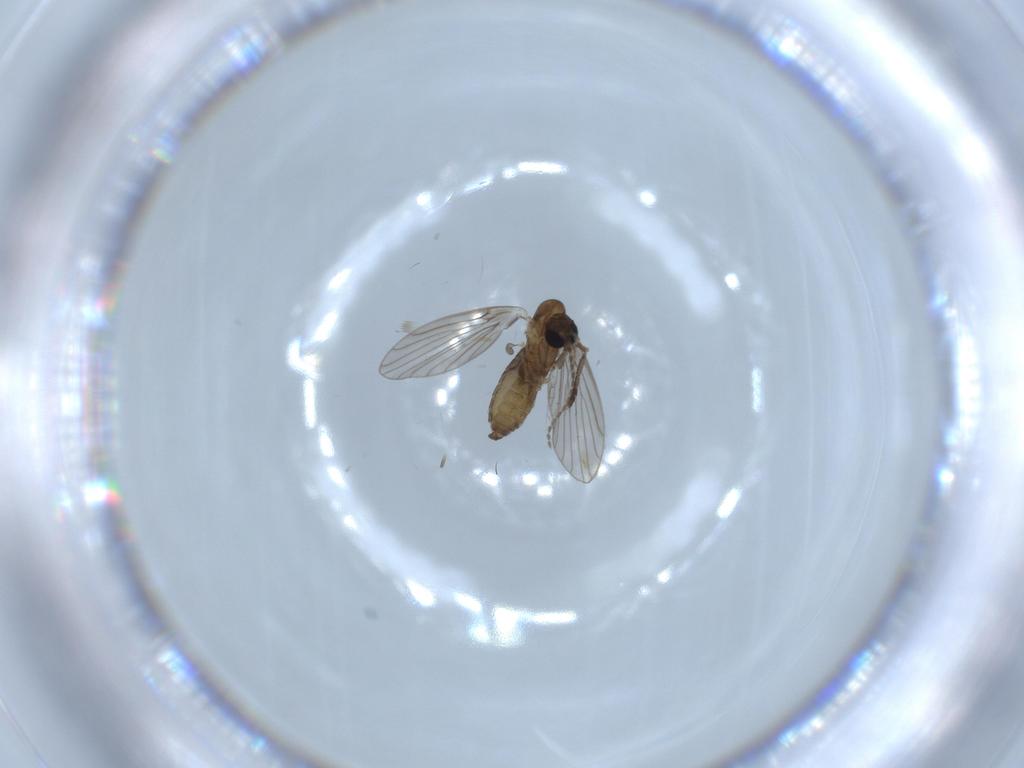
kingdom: Animalia
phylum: Arthropoda
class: Insecta
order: Diptera
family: Psychodidae
